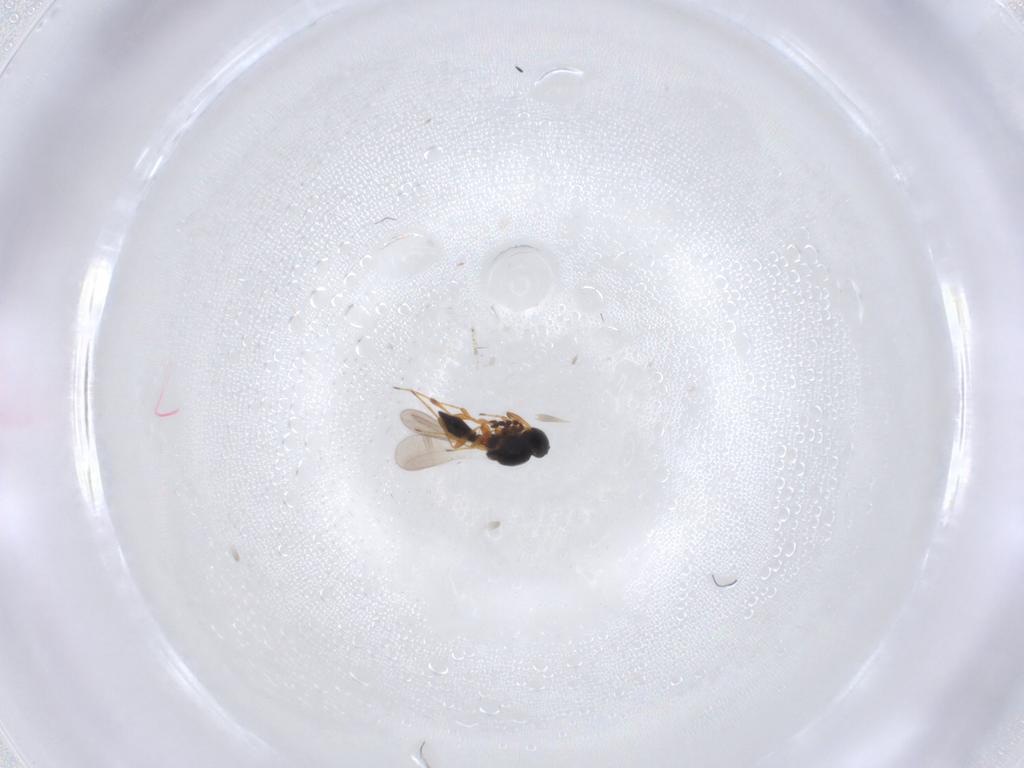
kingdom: Animalia
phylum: Arthropoda
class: Insecta
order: Hymenoptera
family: Platygastridae
